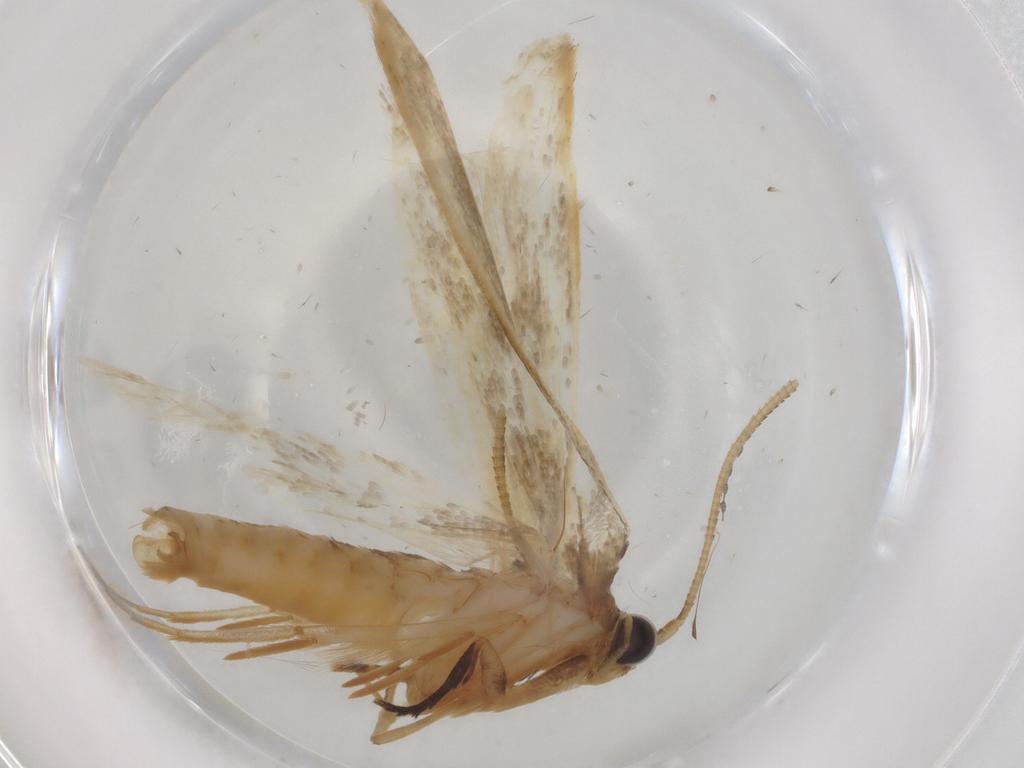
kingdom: Animalia
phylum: Arthropoda
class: Insecta
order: Lepidoptera
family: Tineidae
